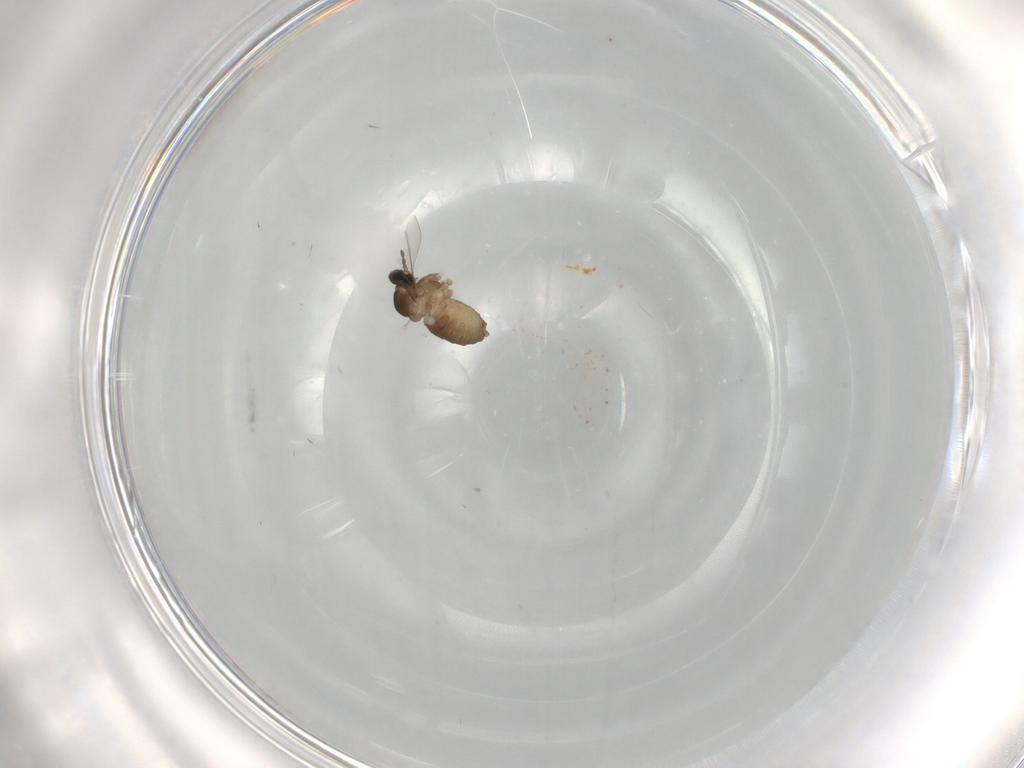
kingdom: Animalia
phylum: Arthropoda
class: Insecta
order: Diptera
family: Cecidomyiidae
